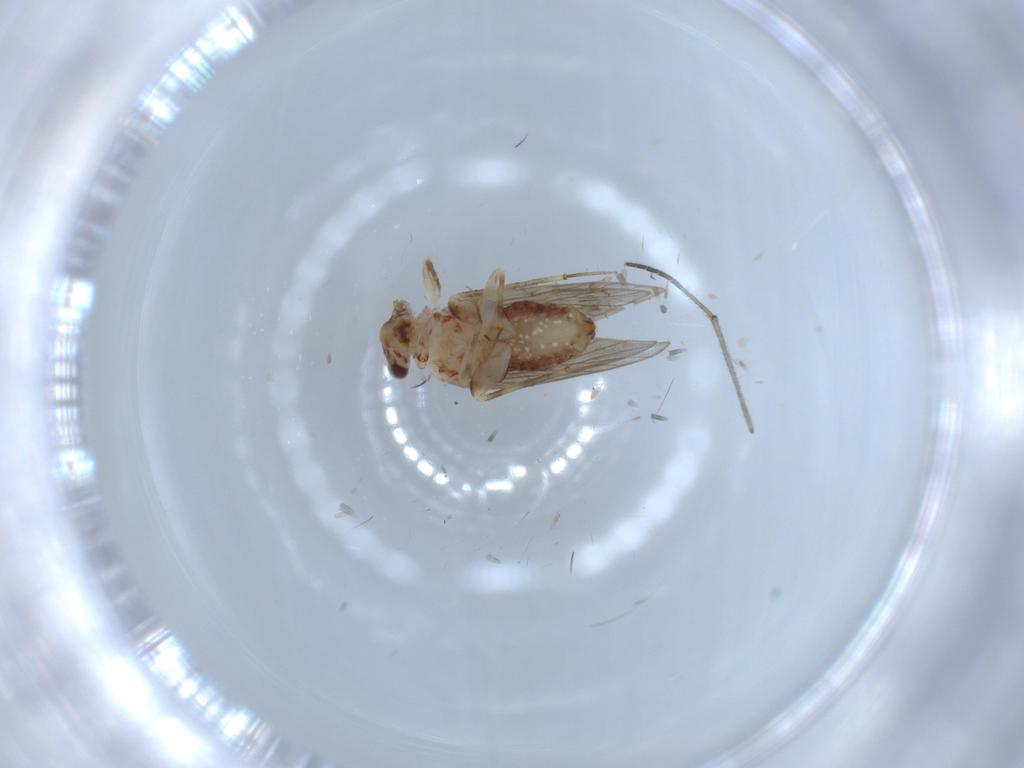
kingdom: Animalia
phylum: Arthropoda
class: Insecta
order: Psocodea
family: Lepidopsocidae
